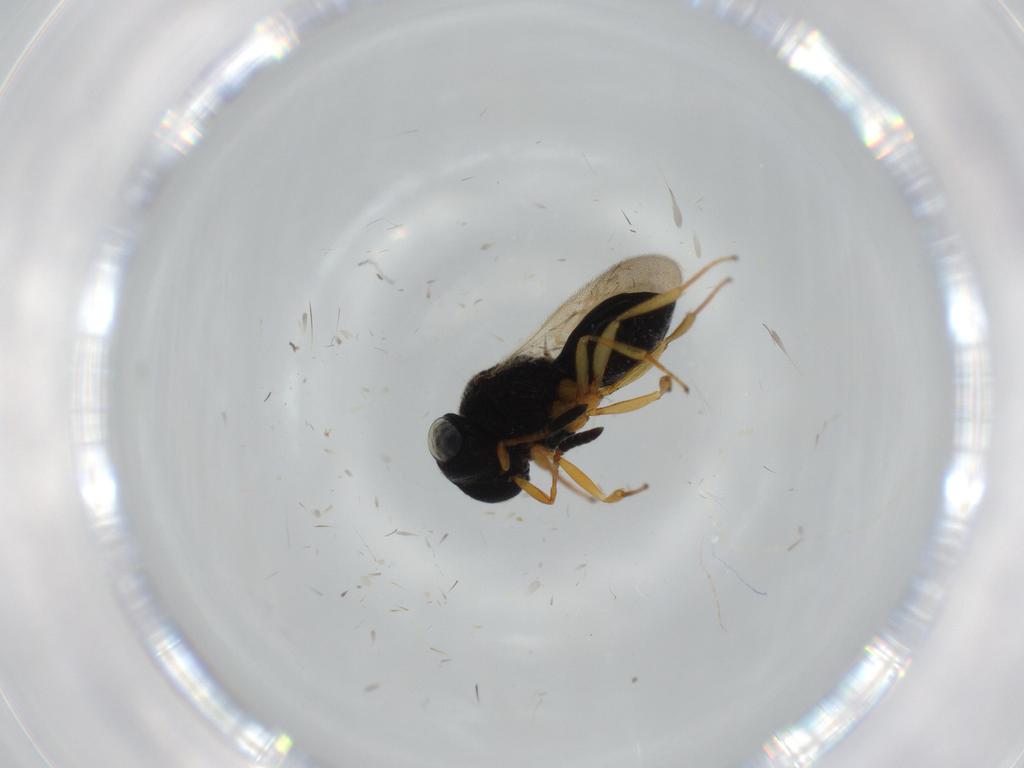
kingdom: Animalia
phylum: Arthropoda
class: Insecta
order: Hymenoptera
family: Scelionidae
